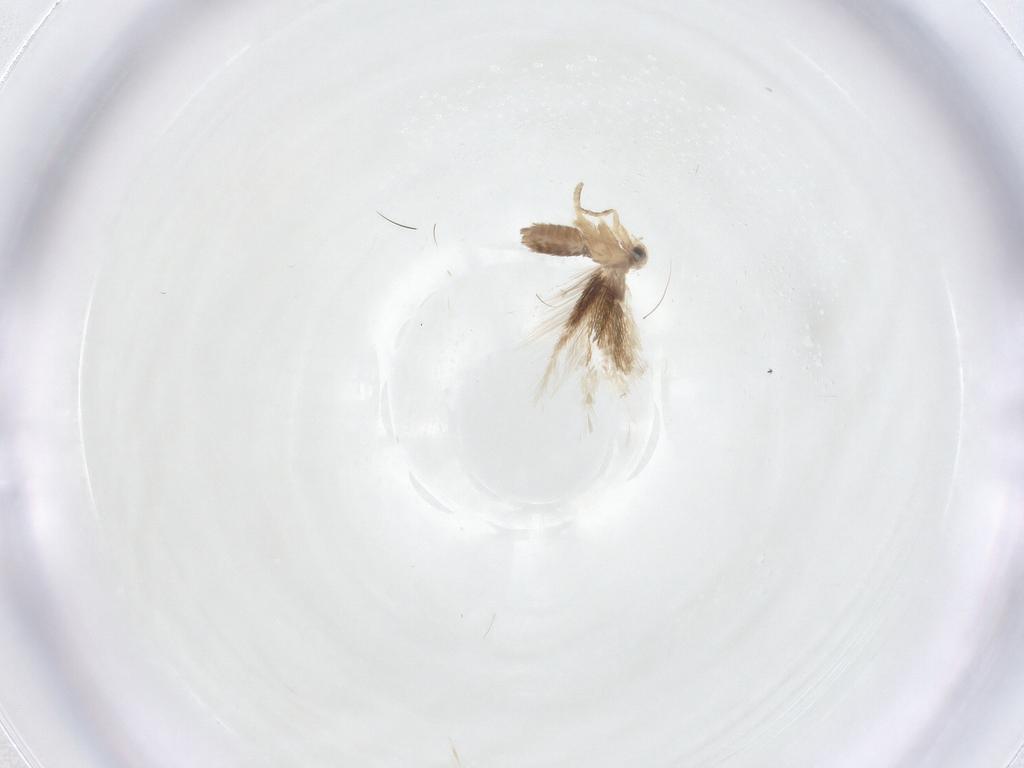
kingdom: Animalia
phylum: Arthropoda
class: Insecta
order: Lepidoptera
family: Nepticulidae
